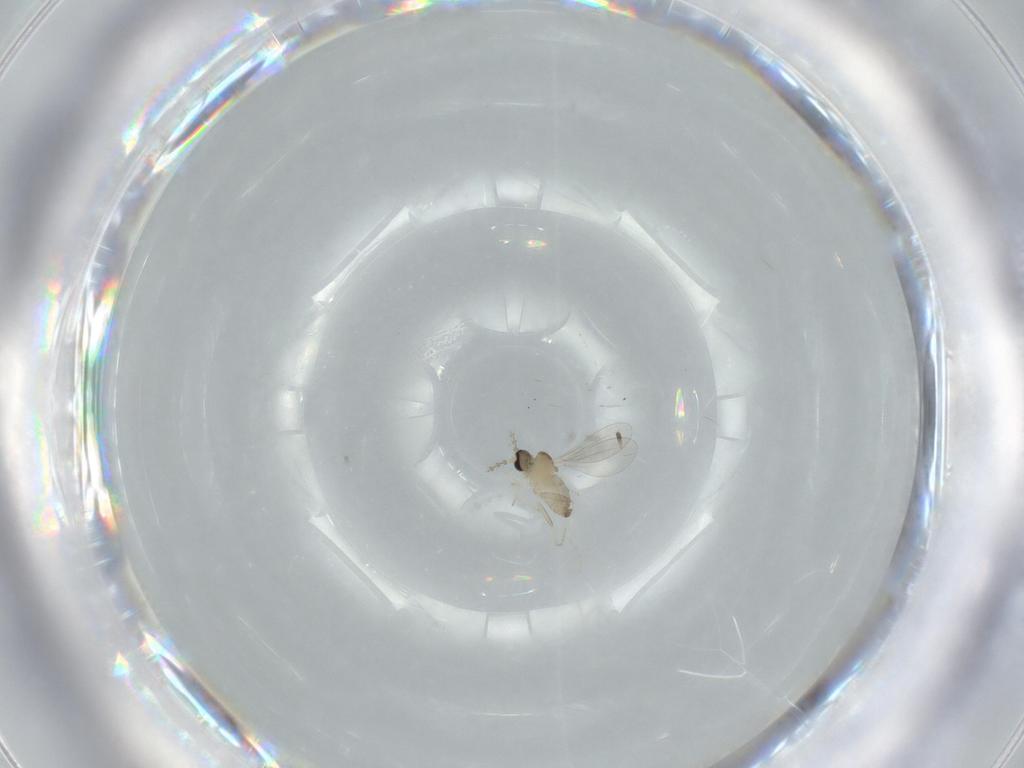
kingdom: Animalia
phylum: Arthropoda
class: Insecta
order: Diptera
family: Cecidomyiidae
